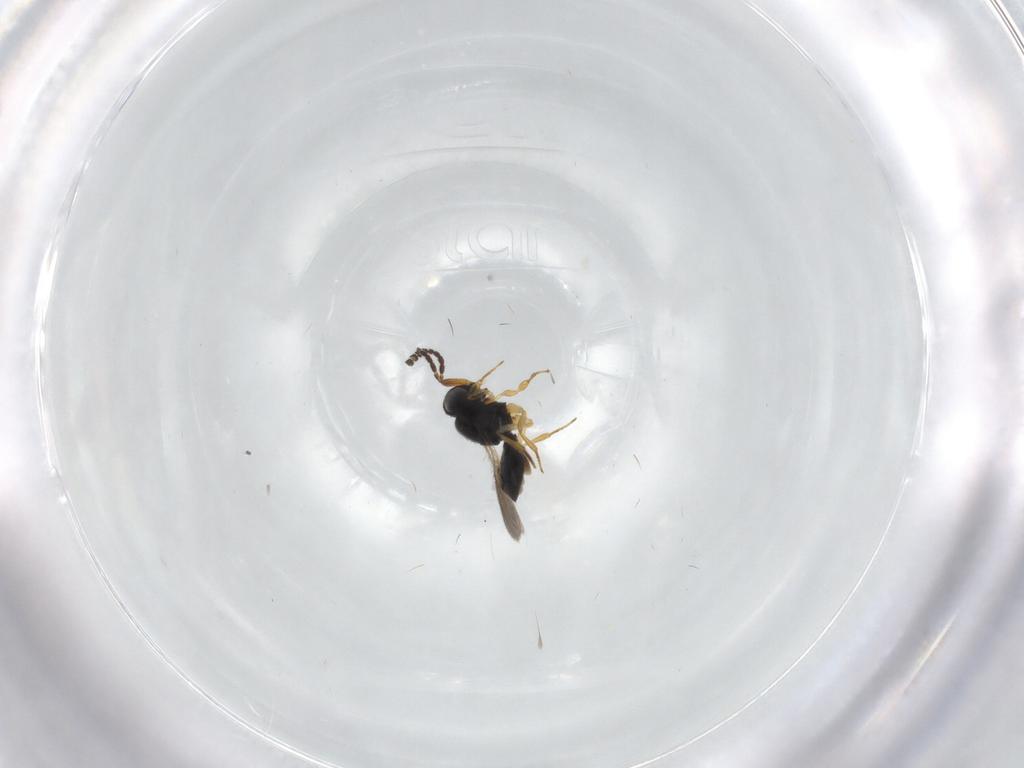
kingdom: Animalia
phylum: Arthropoda
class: Insecta
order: Hymenoptera
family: Scelionidae
